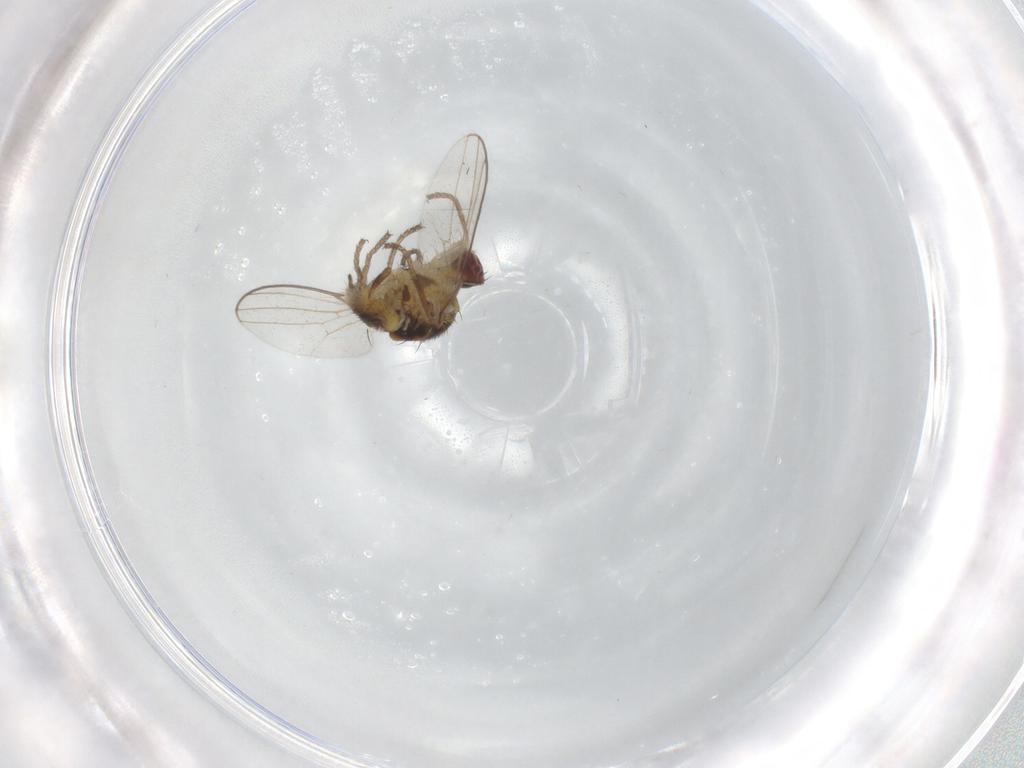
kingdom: Animalia
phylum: Arthropoda
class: Insecta
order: Diptera
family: Chloropidae
